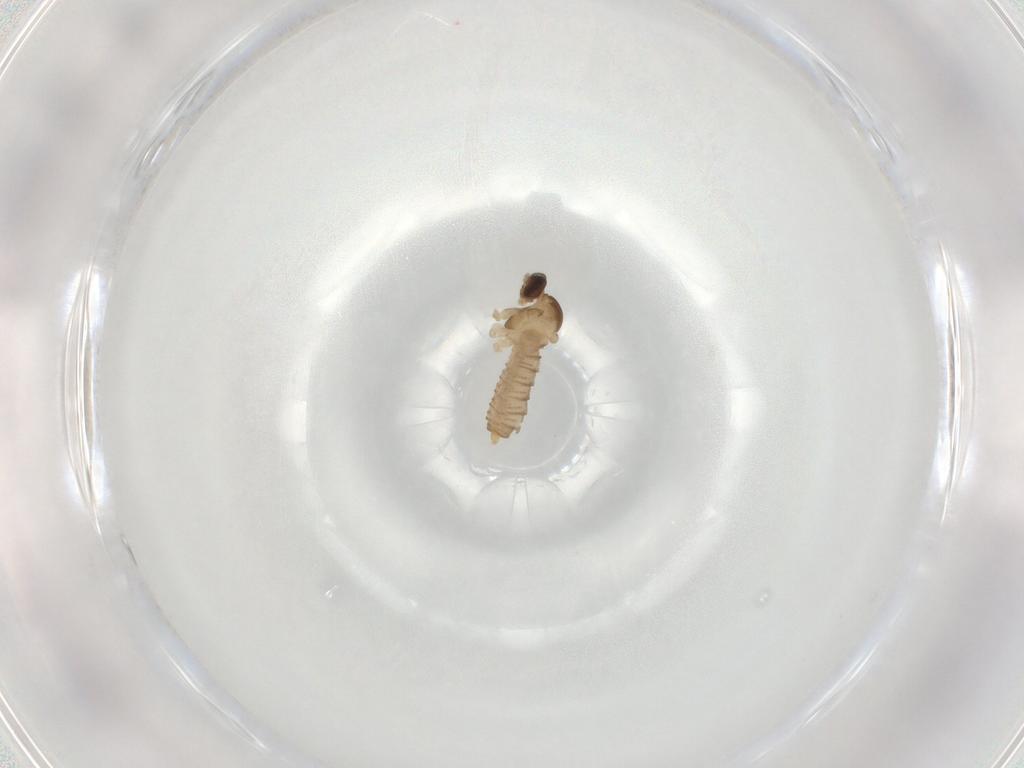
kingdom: Animalia
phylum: Arthropoda
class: Insecta
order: Diptera
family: Cecidomyiidae
